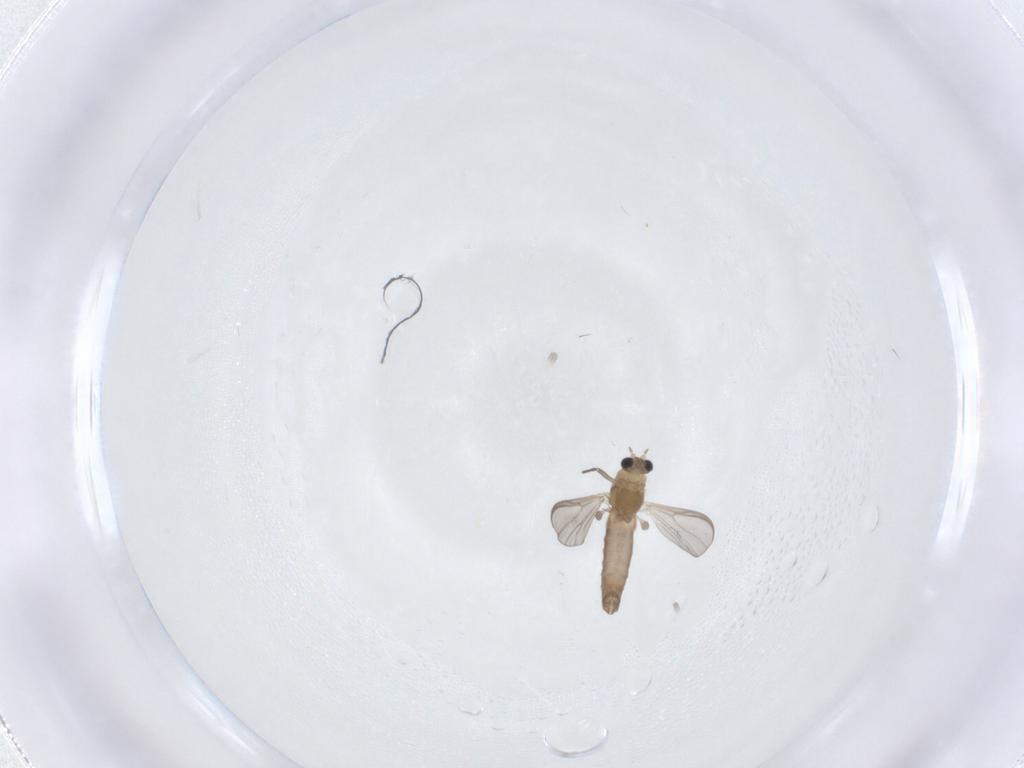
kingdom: Animalia
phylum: Arthropoda
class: Insecta
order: Diptera
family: Chironomidae
